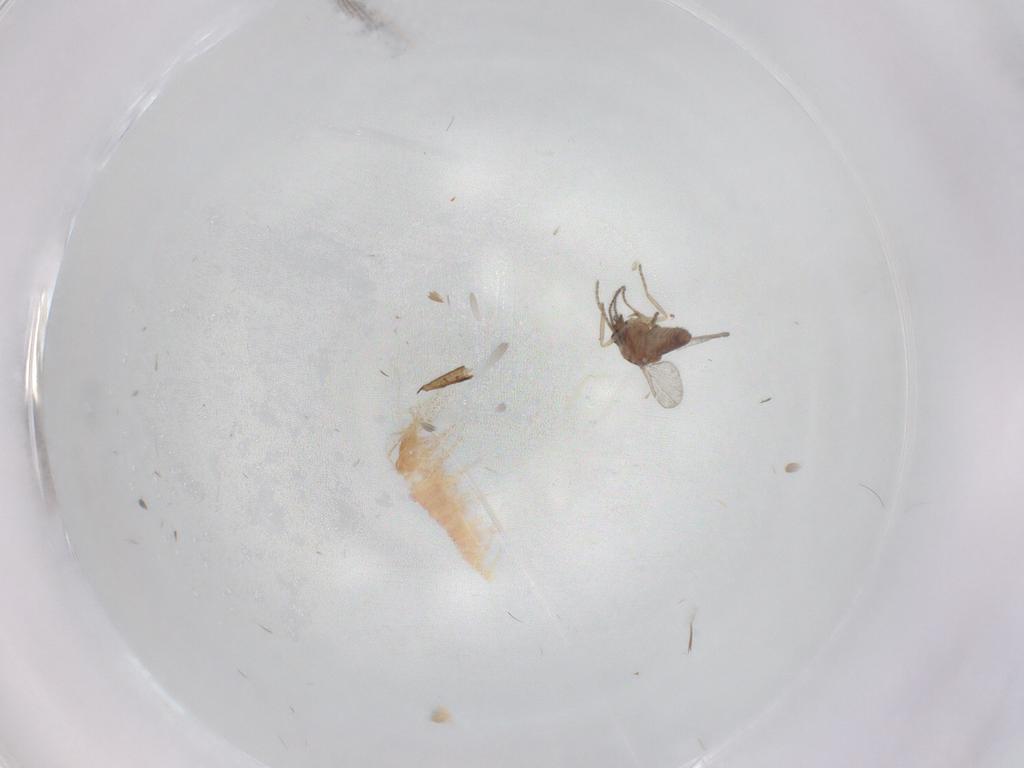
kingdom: Animalia
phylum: Arthropoda
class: Insecta
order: Diptera
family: Ceratopogonidae
